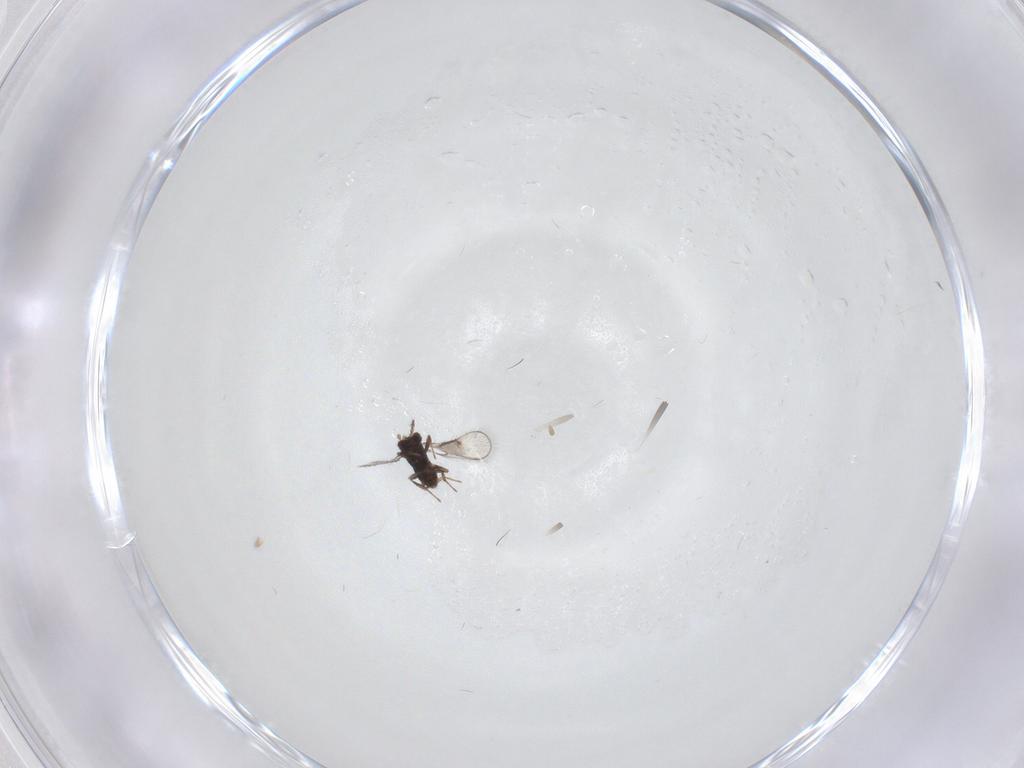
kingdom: Animalia
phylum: Arthropoda
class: Insecta
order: Hymenoptera
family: Trichogrammatidae
